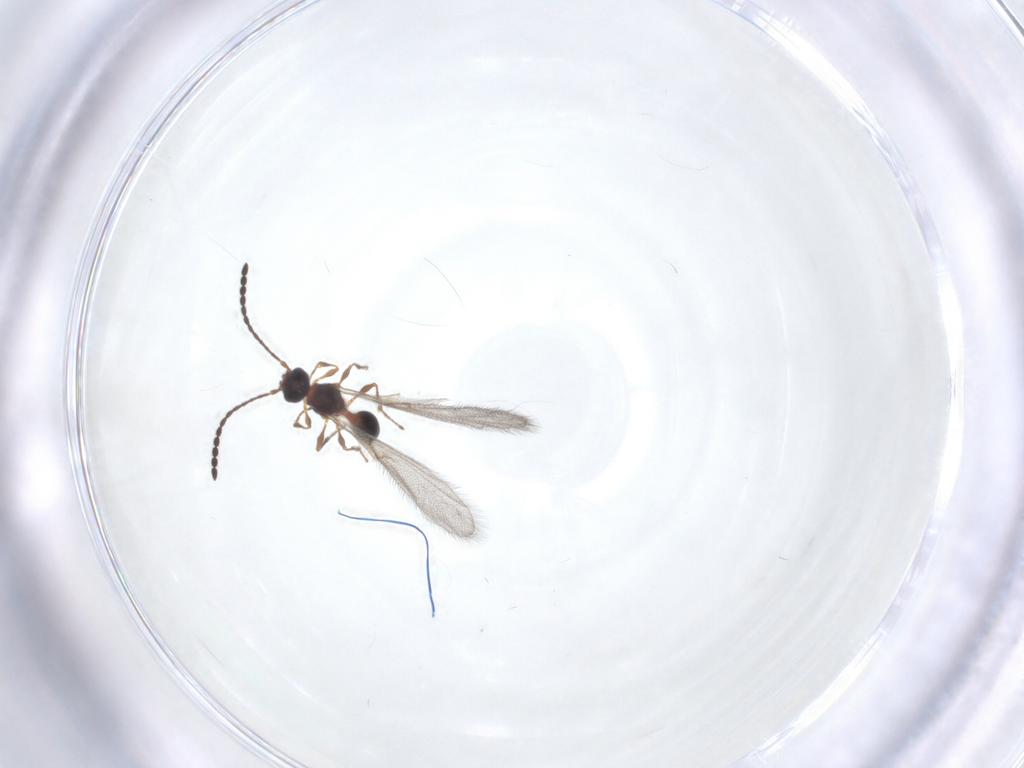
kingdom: Animalia
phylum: Arthropoda
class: Insecta
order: Hymenoptera
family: Diapriidae
